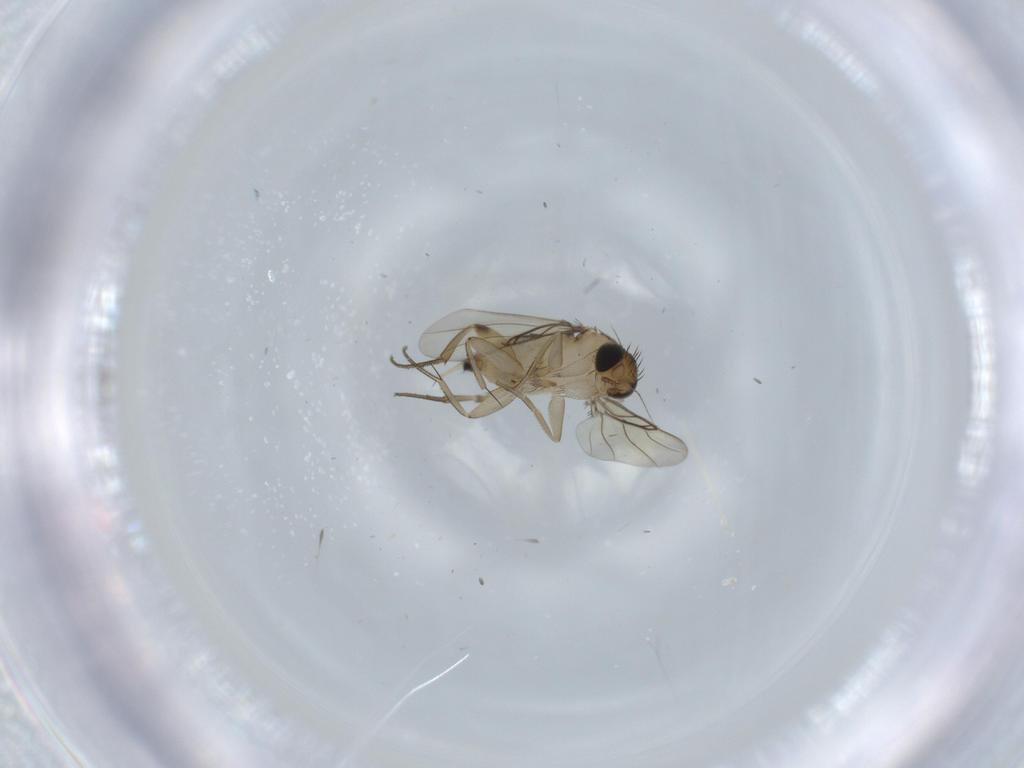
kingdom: Animalia
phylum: Arthropoda
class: Insecta
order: Diptera
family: Phoridae
